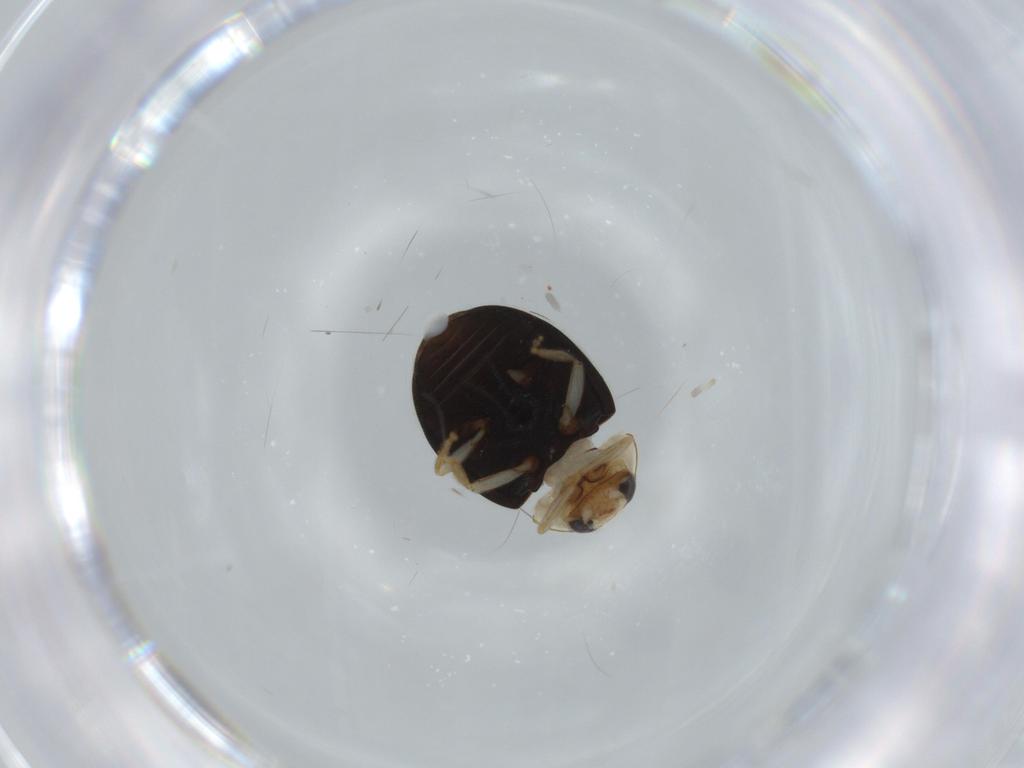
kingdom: Animalia
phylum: Arthropoda
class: Insecta
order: Coleoptera
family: Coccinellidae
